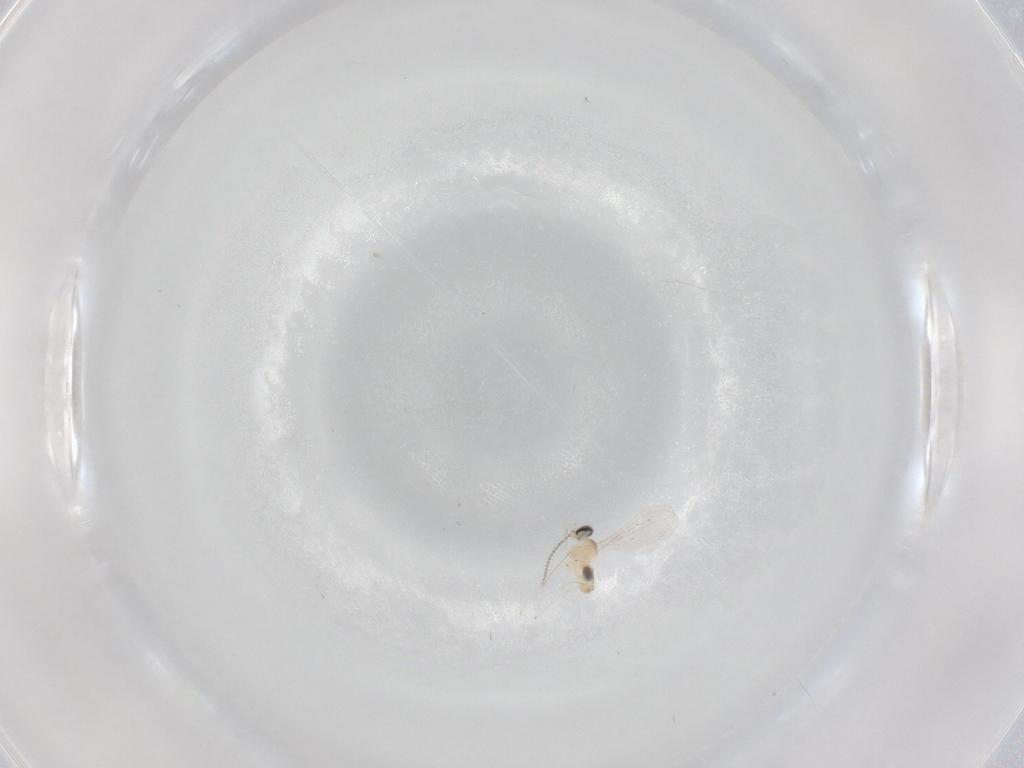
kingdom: Animalia
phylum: Arthropoda
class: Insecta
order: Diptera
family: Cecidomyiidae
